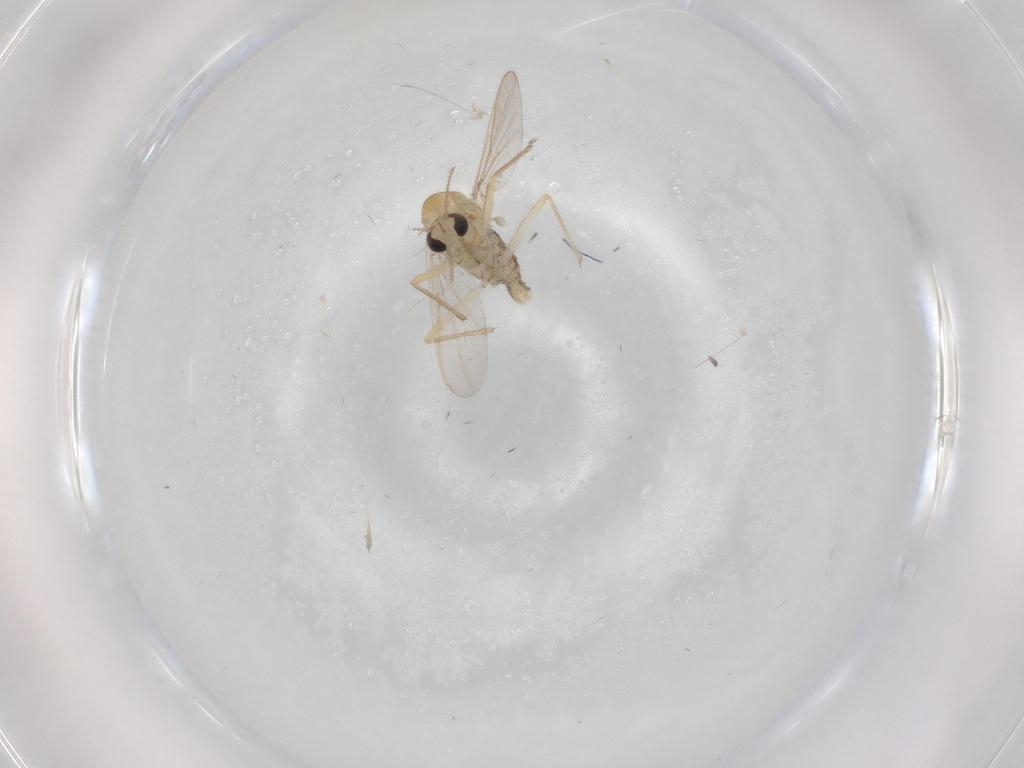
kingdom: Animalia
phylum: Arthropoda
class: Insecta
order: Diptera
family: Chironomidae
